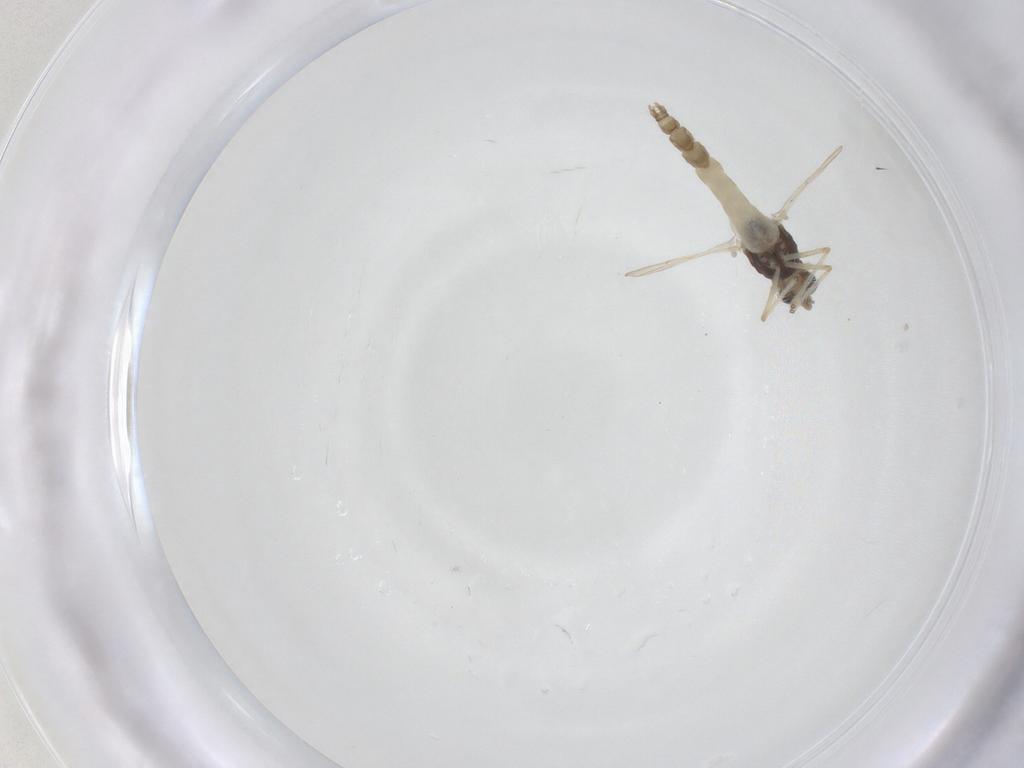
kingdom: Animalia
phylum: Arthropoda
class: Insecta
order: Diptera
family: Chironomidae
